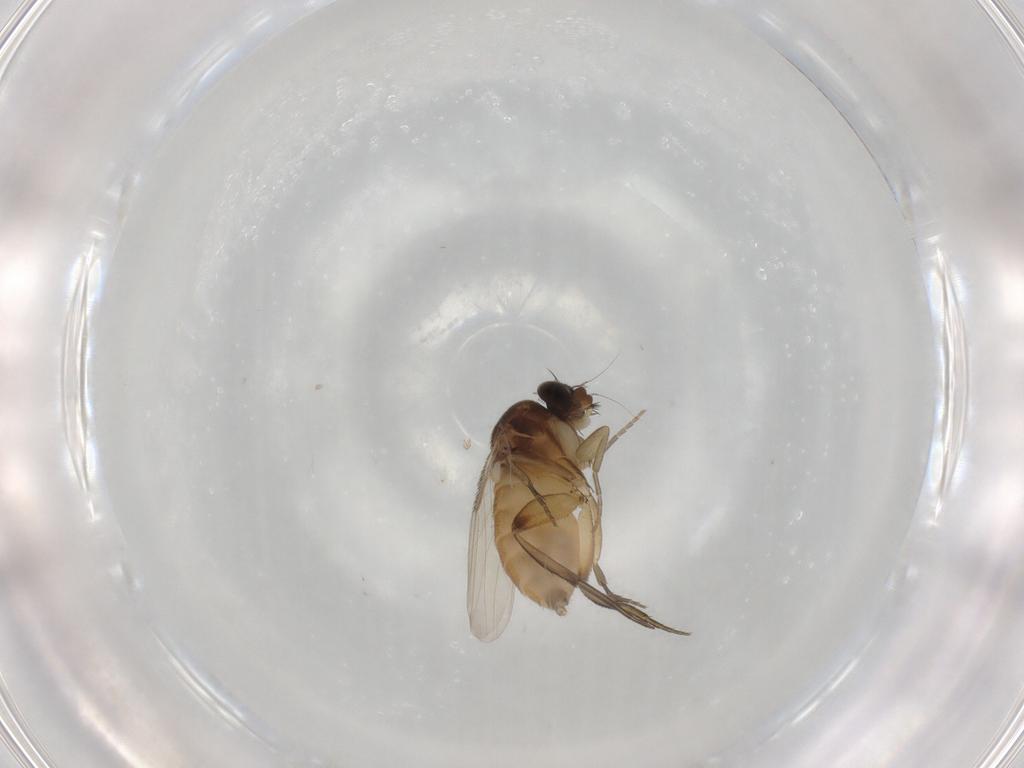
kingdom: Animalia
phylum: Arthropoda
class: Insecta
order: Diptera
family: Phoridae
